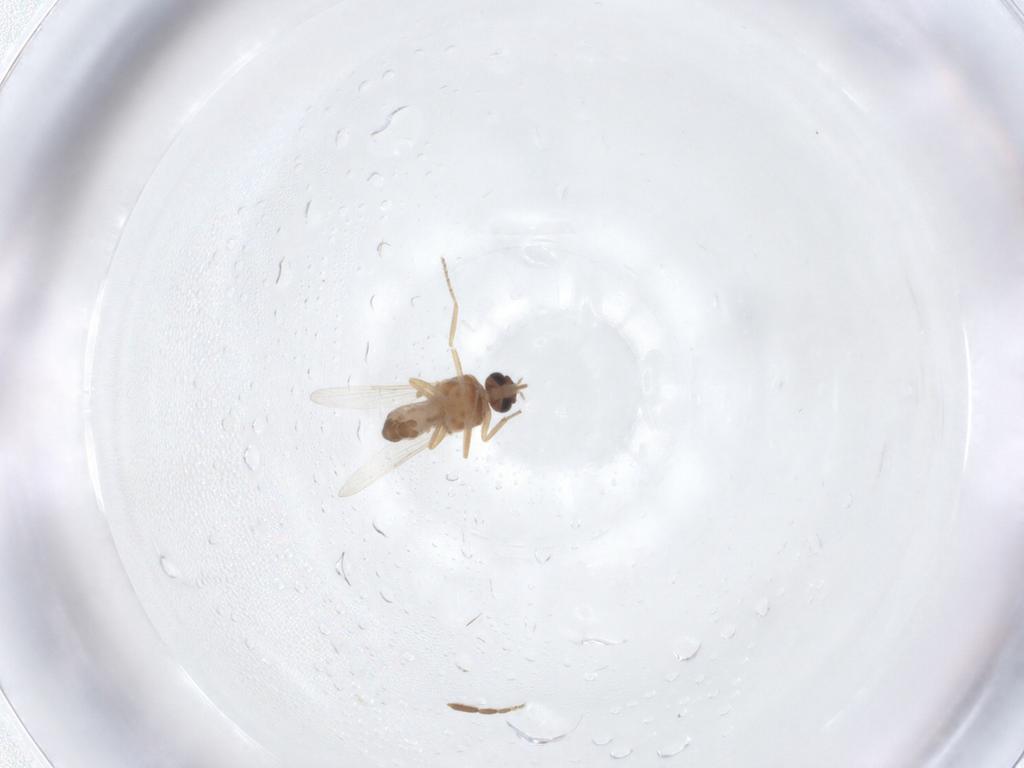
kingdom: Animalia
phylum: Arthropoda
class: Insecta
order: Diptera
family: Ceratopogonidae
